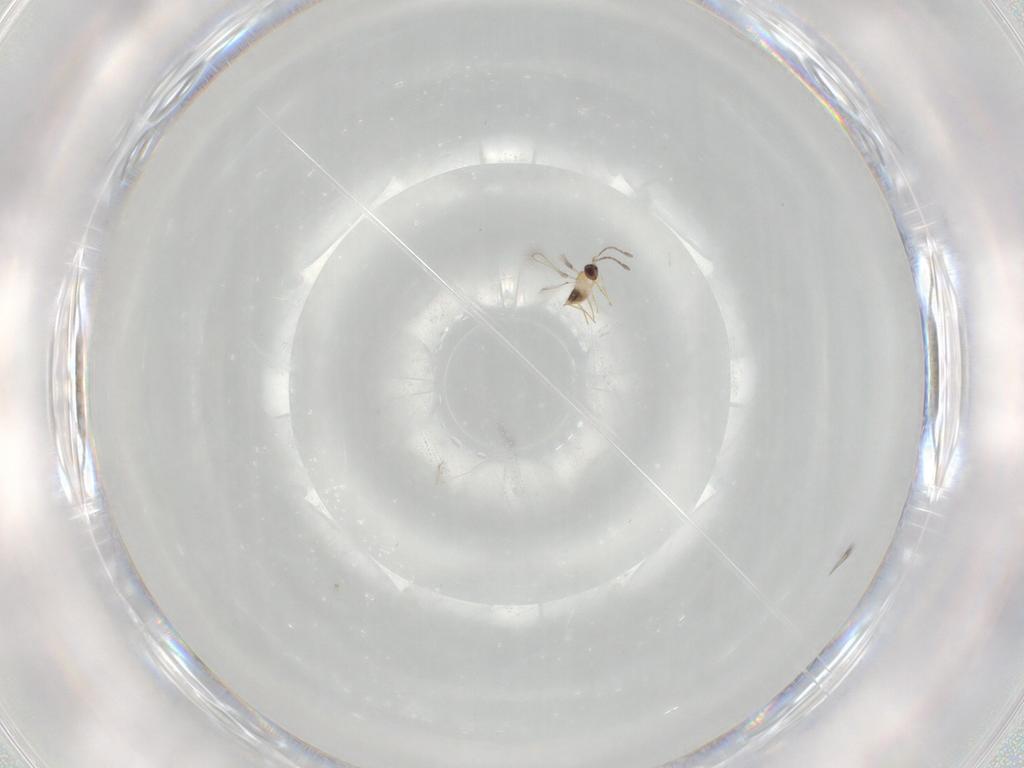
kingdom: Animalia
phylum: Arthropoda
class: Insecta
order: Hymenoptera
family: Mymaridae
